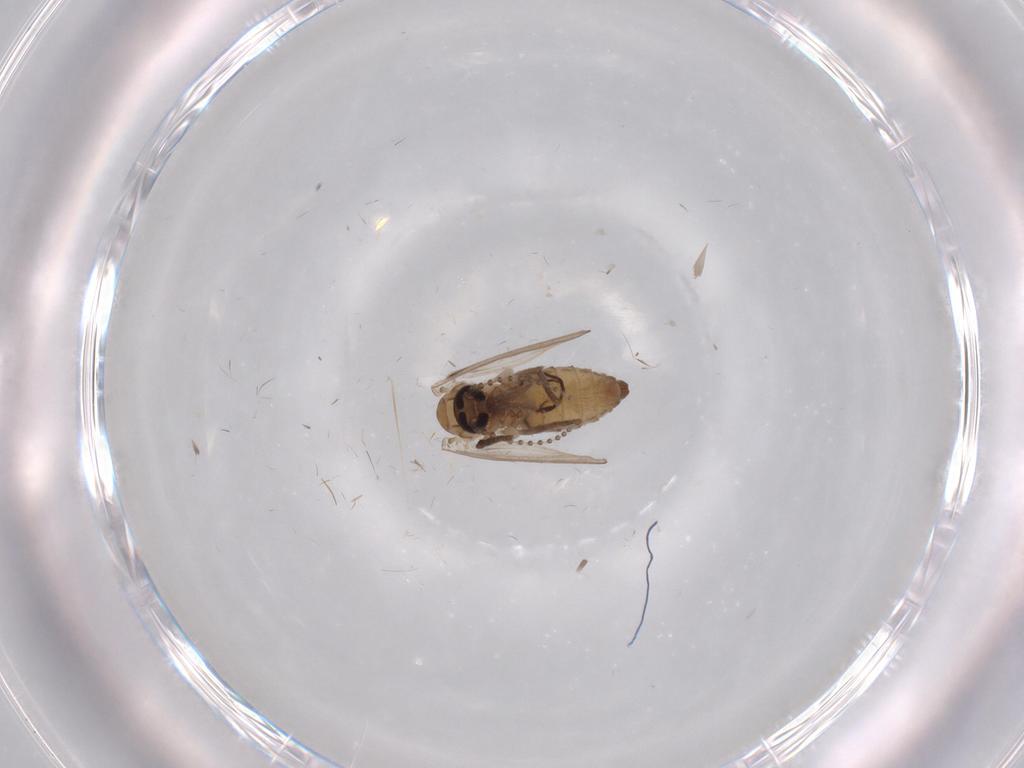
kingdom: Animalia
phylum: Arthropoda
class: Insecta
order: Diptera
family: Psychodidae
